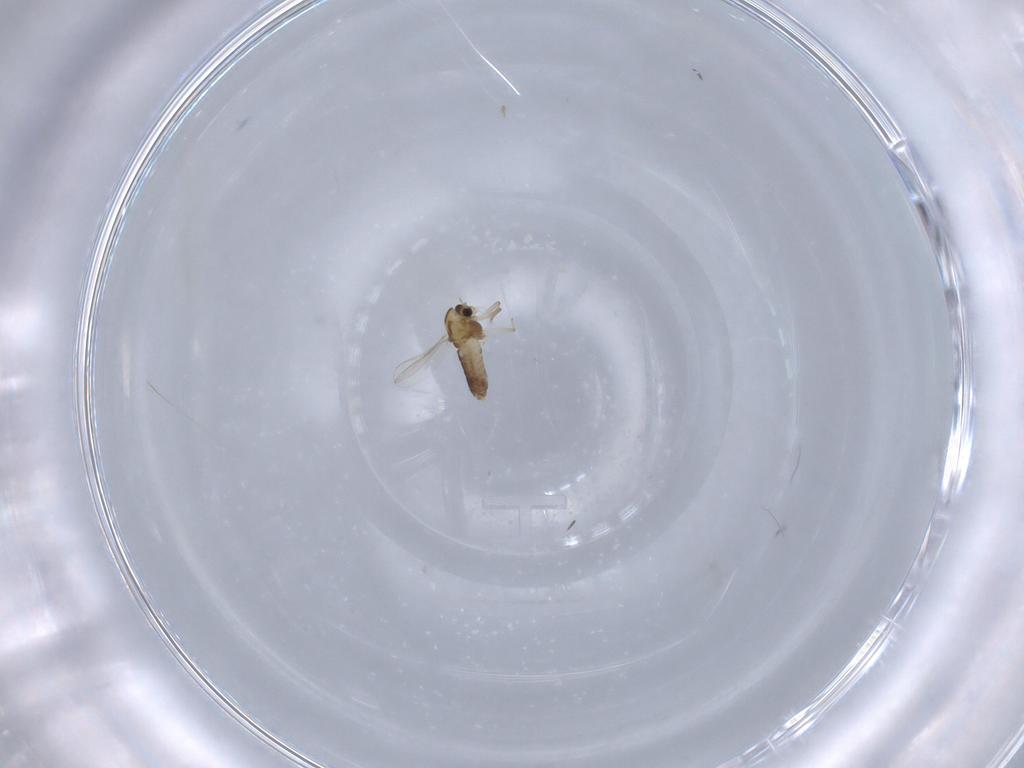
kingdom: Animalia
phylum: Arthropoda
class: Insecta
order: Diptera
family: Chironomidae
